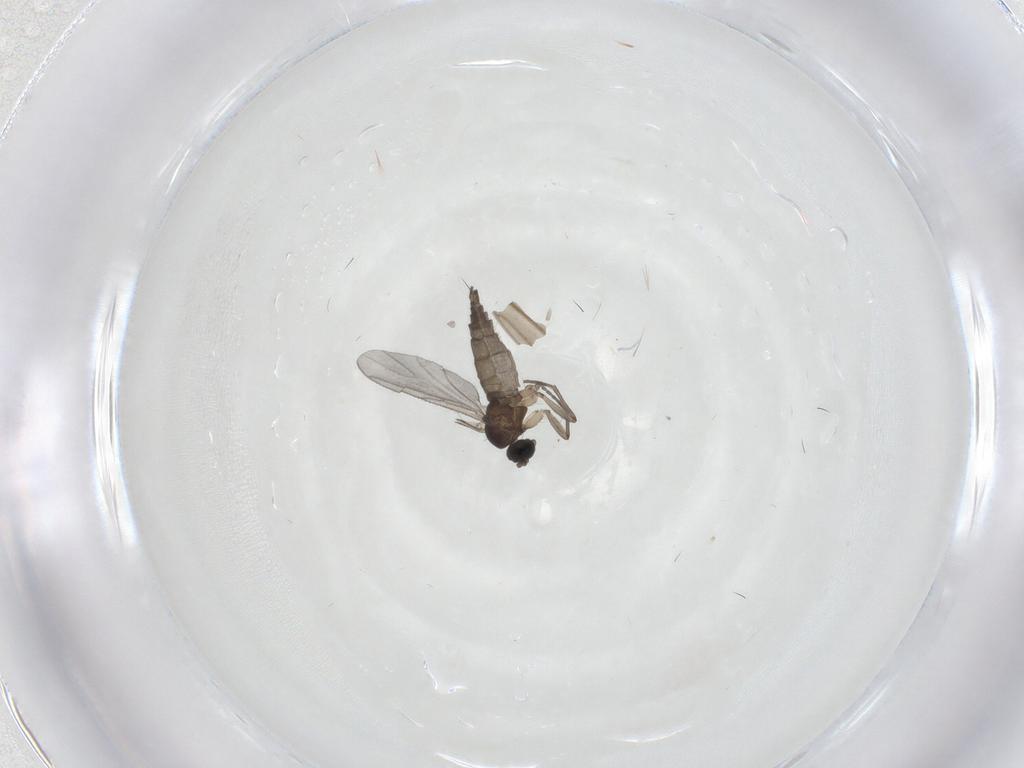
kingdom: Animalia
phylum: Arthropoda
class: Insecta
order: Diptera
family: Sciaridae
